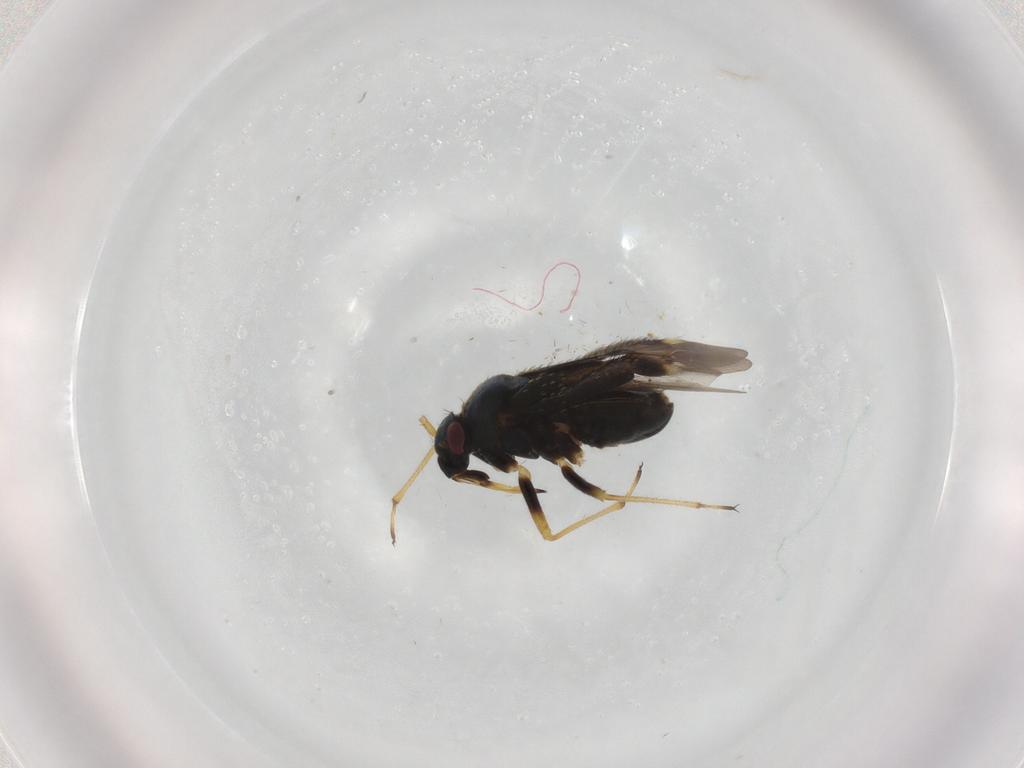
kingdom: Animalia
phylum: Arthropoda
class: Insecta
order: Hemiptera
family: Miridae
